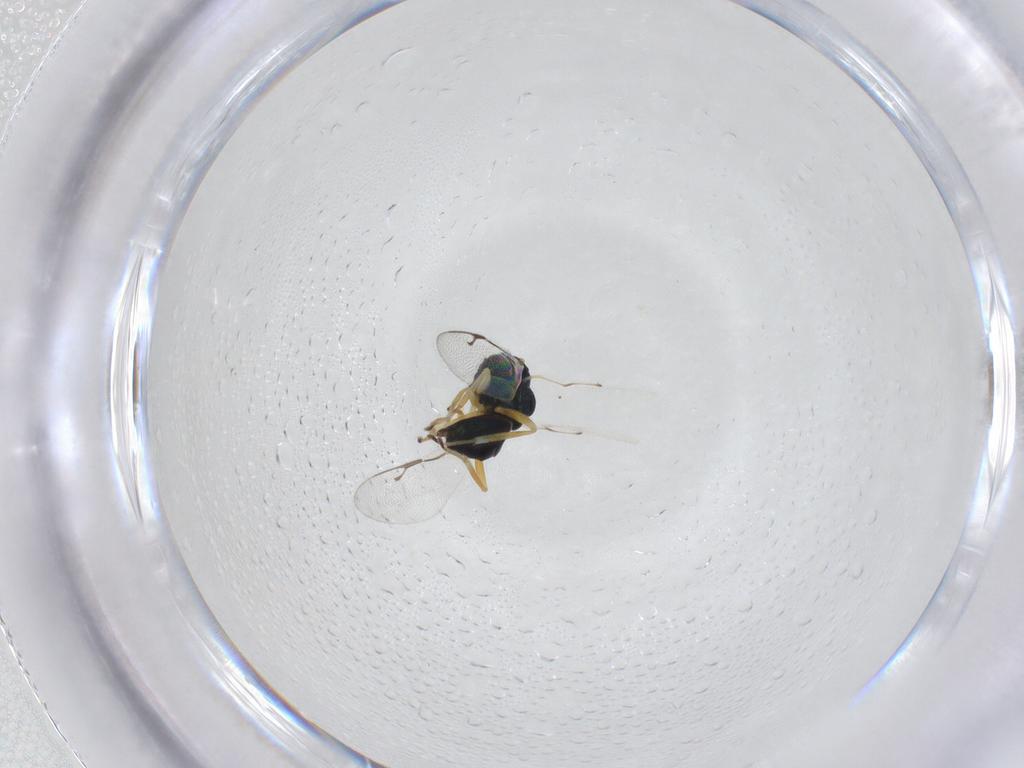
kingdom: Animalia
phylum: Arthropoda
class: Insecta
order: Hymenoptera
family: Pteromalidae
